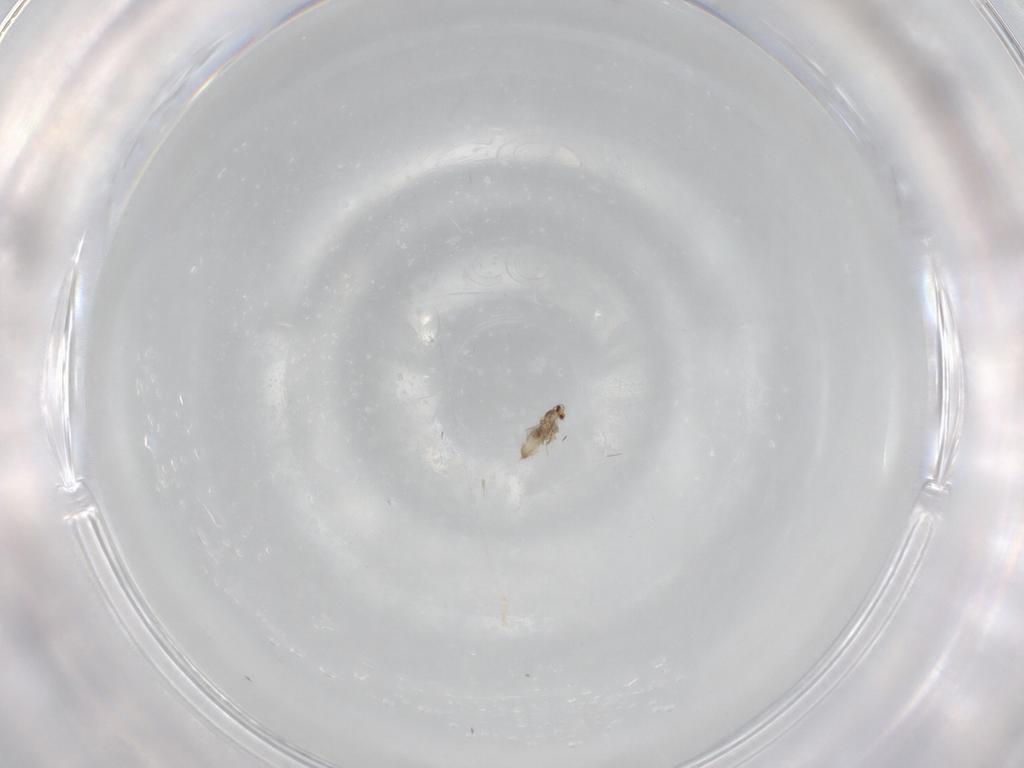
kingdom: Animalia
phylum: Arthropoda
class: Insecta
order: Diptera
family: Cecidomyiidae
